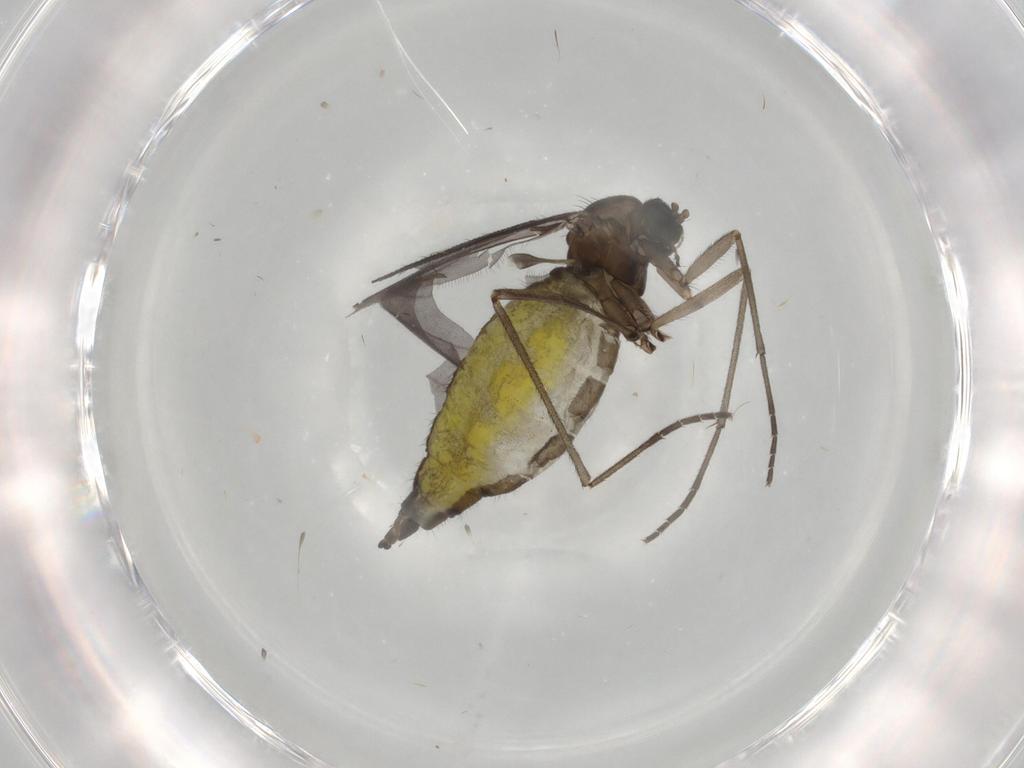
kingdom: Animalia
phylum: Arthropoda
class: Insecta
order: Diptera
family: Sciaridae
